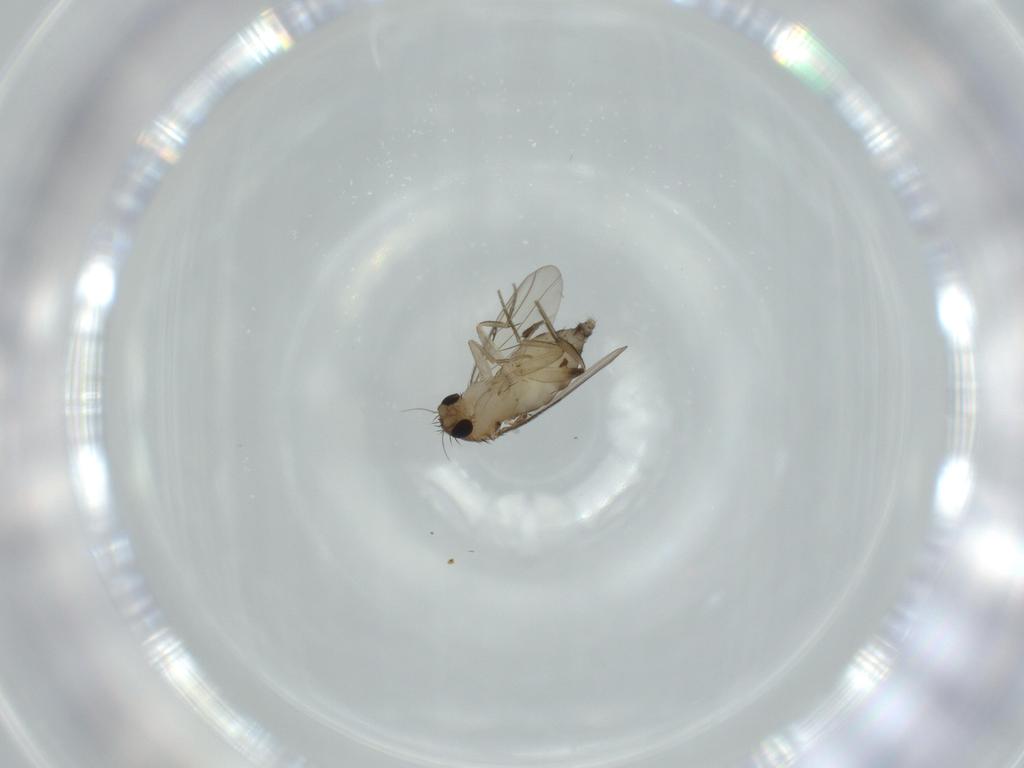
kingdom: Animalia
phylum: Arthropoda
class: Insecta
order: Diptera
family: Phoridae
